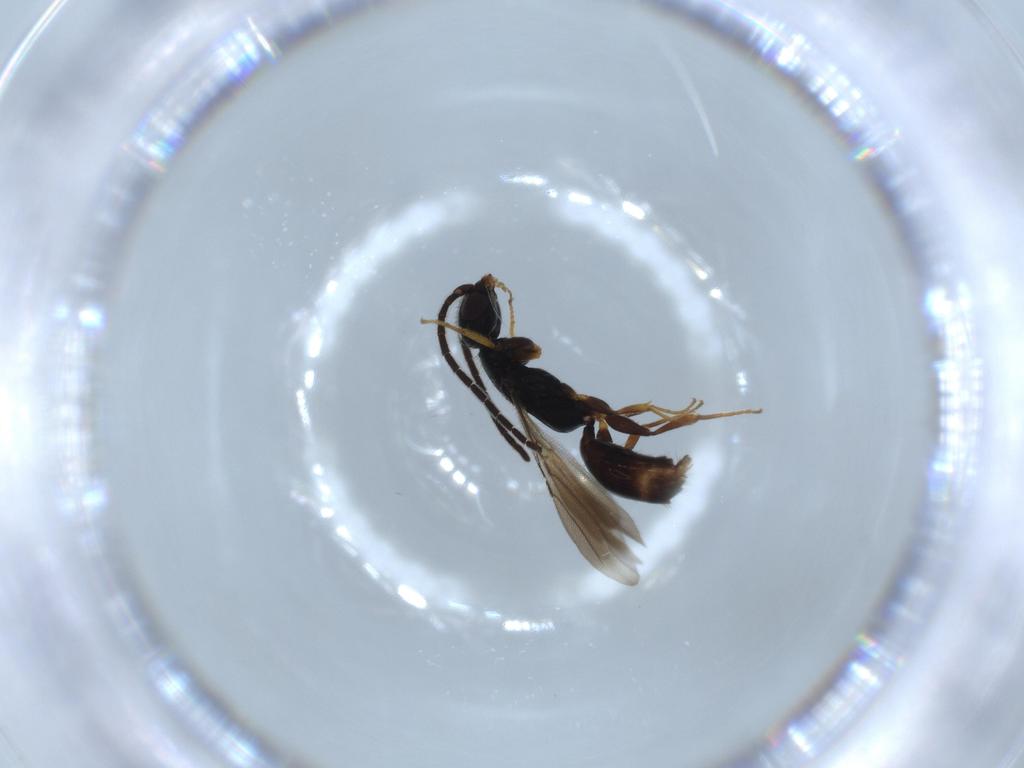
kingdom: Animalia
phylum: Arthropoda
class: Insecta
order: Hymenoptera
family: Bethylidae
